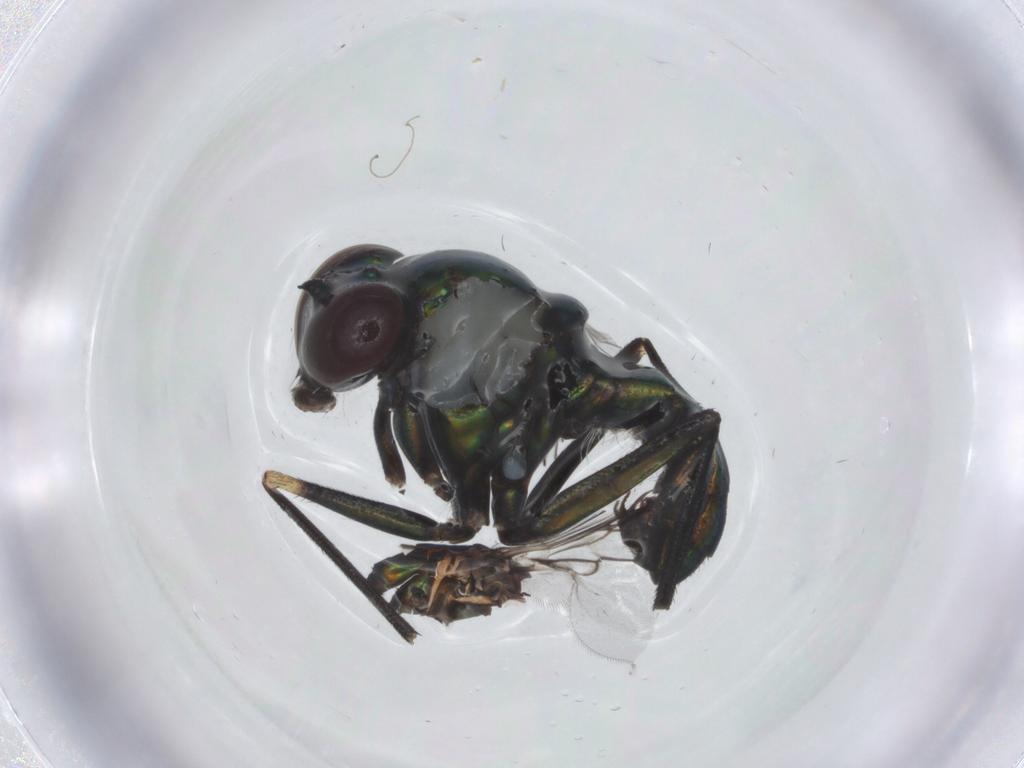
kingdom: Animalia
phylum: Arthropoda
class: Insecta
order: Diptera
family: Dolichopodidae
